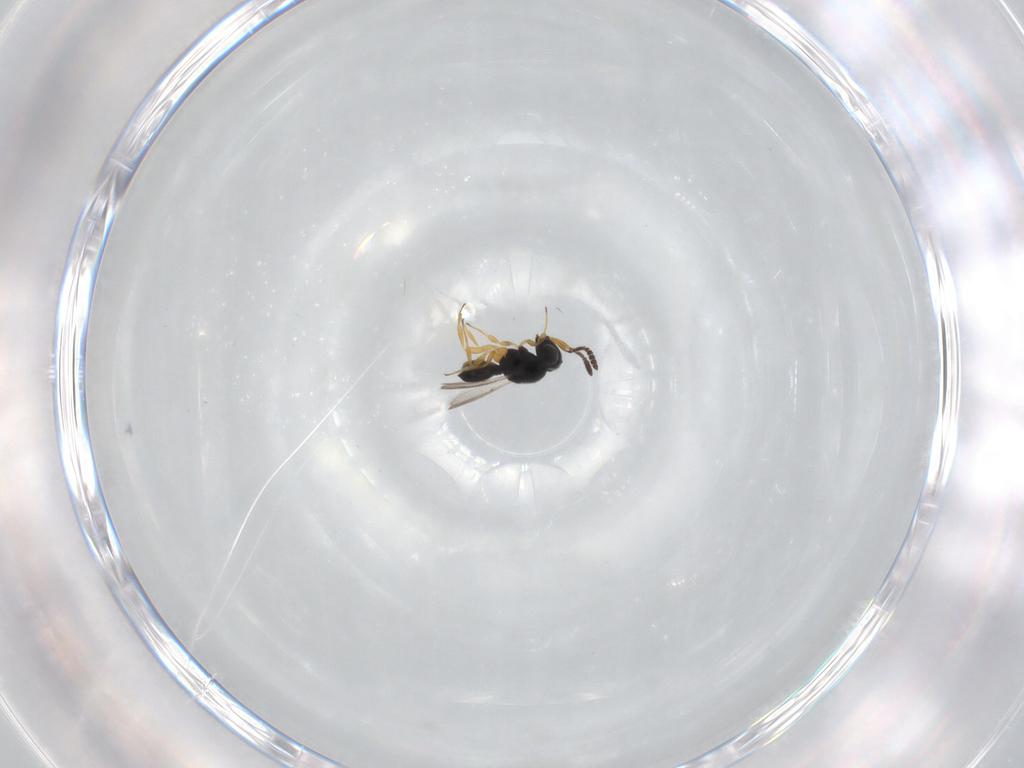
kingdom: Animalia
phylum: Arthropoda
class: Insecta
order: Hymenoptera
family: Scelionidae
